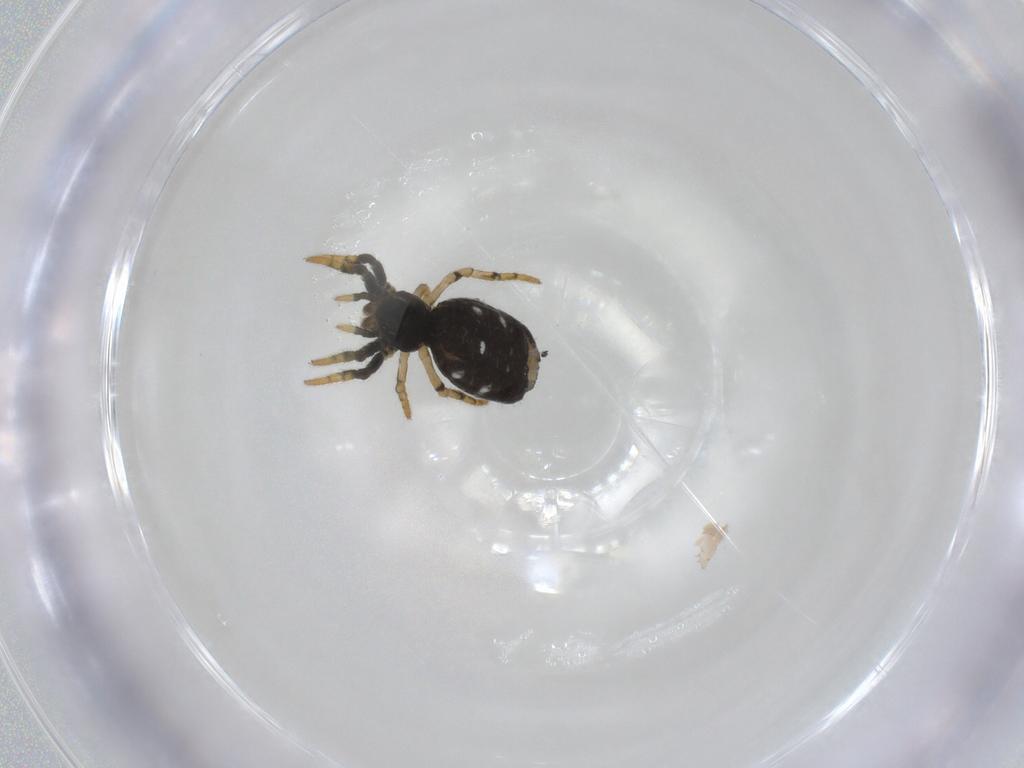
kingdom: Animalia
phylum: Arthropoda
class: Arachnida
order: Araneae
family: Araneidae
